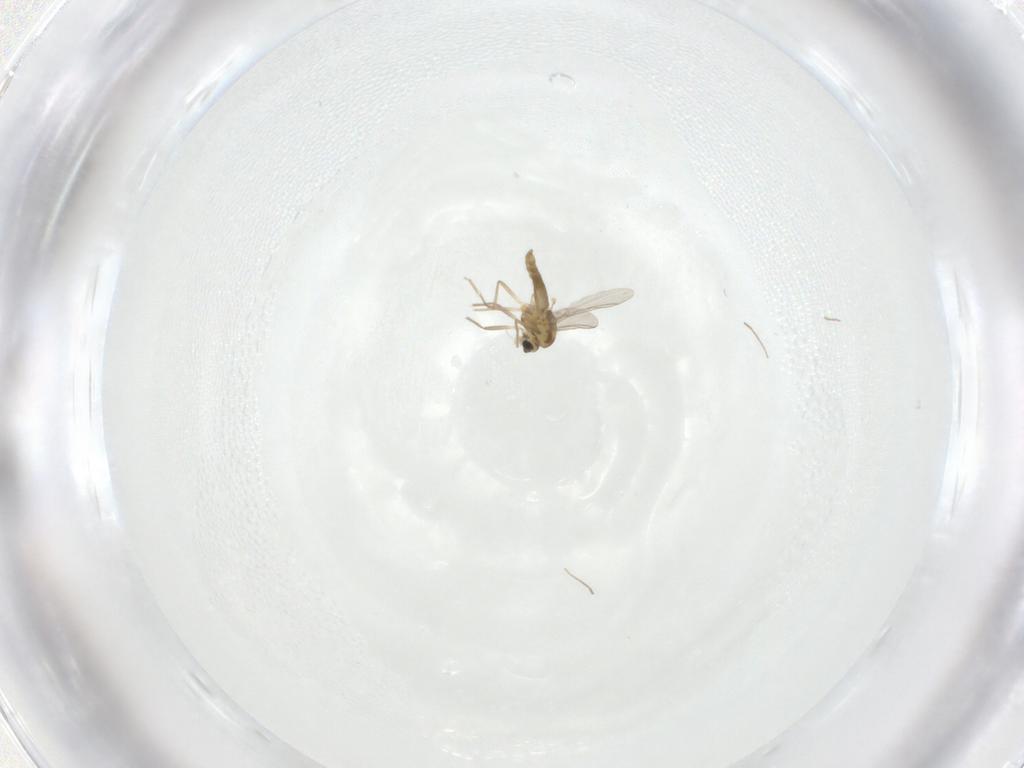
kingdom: Animalia
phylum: Arthropoda
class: Insecta
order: Diptera
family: Chironomidae
